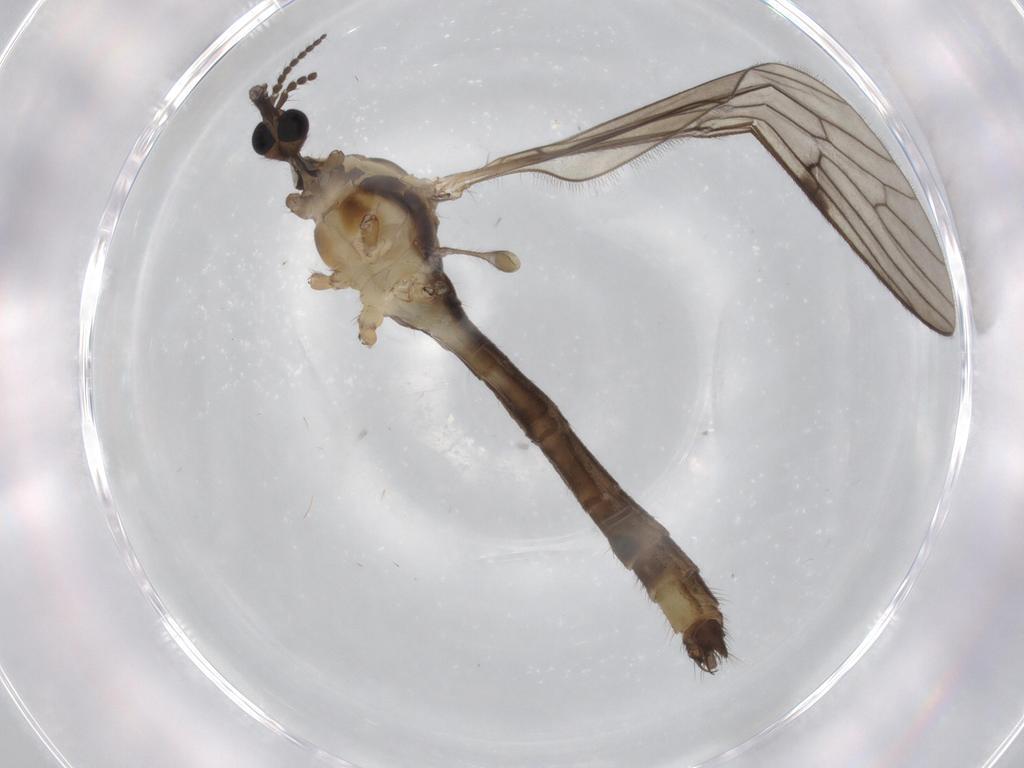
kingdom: Animalia
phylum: Arthropoda
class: Insecta
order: Diptera
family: Limoniidae
